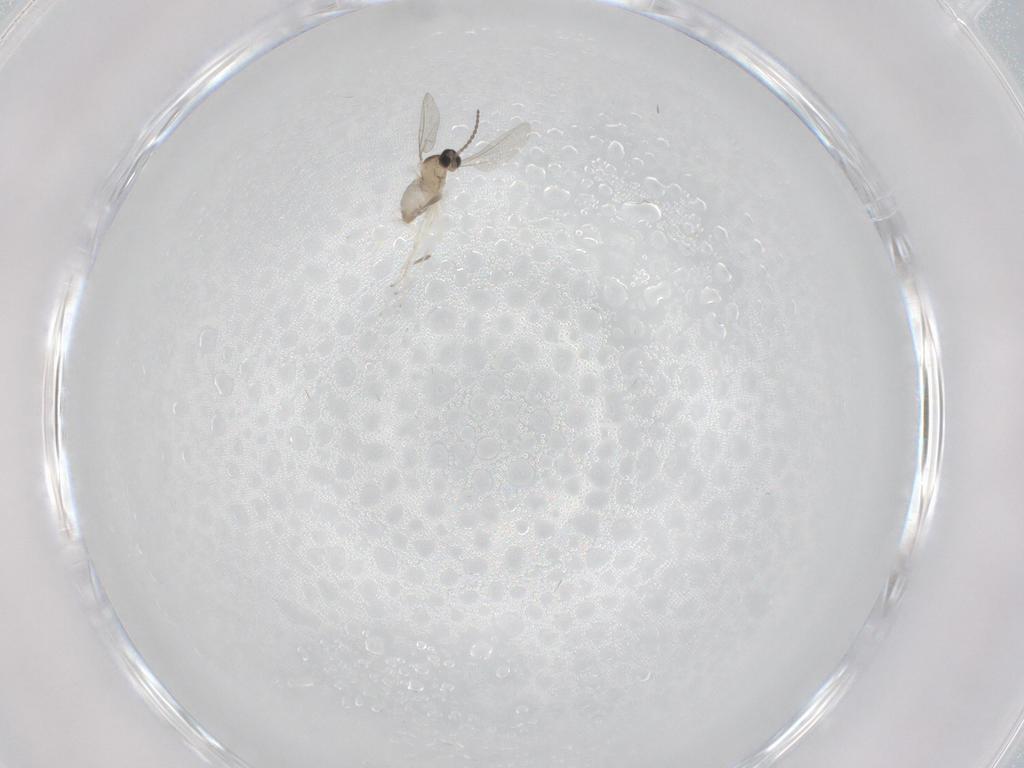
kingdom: Animalia
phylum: Arthropoda
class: Insecta
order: Diptera
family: Cecidomyiidae
